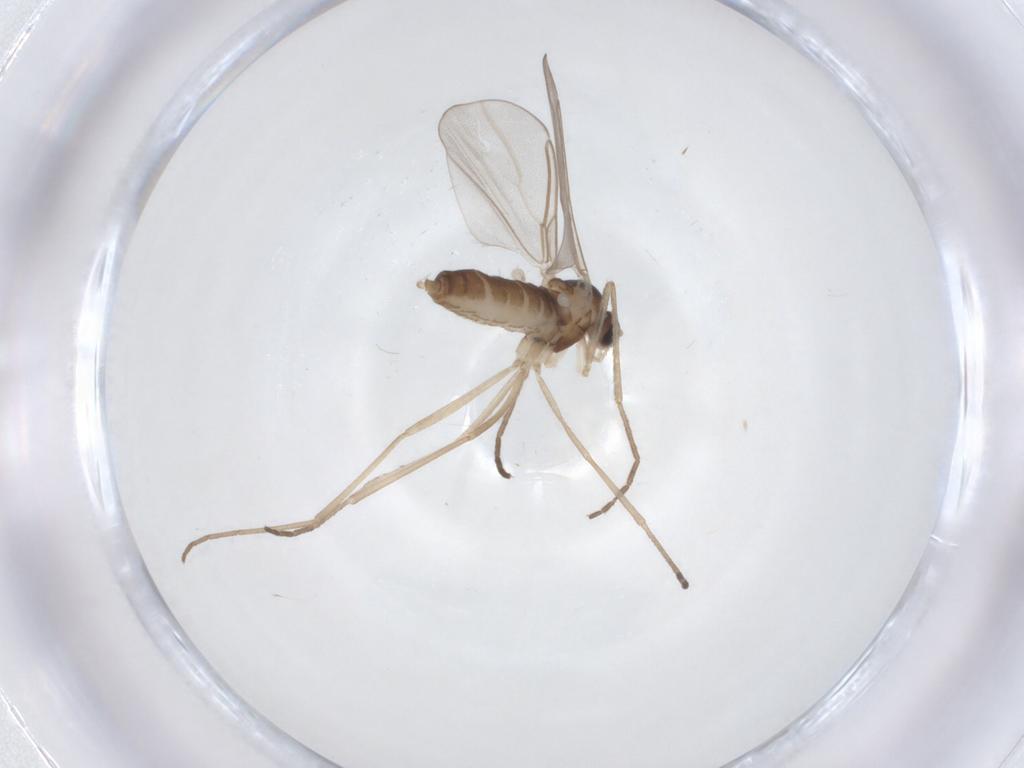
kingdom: Animalia
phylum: Arthropoda
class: Insecta
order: Diptera
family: Cecidomyiidae
